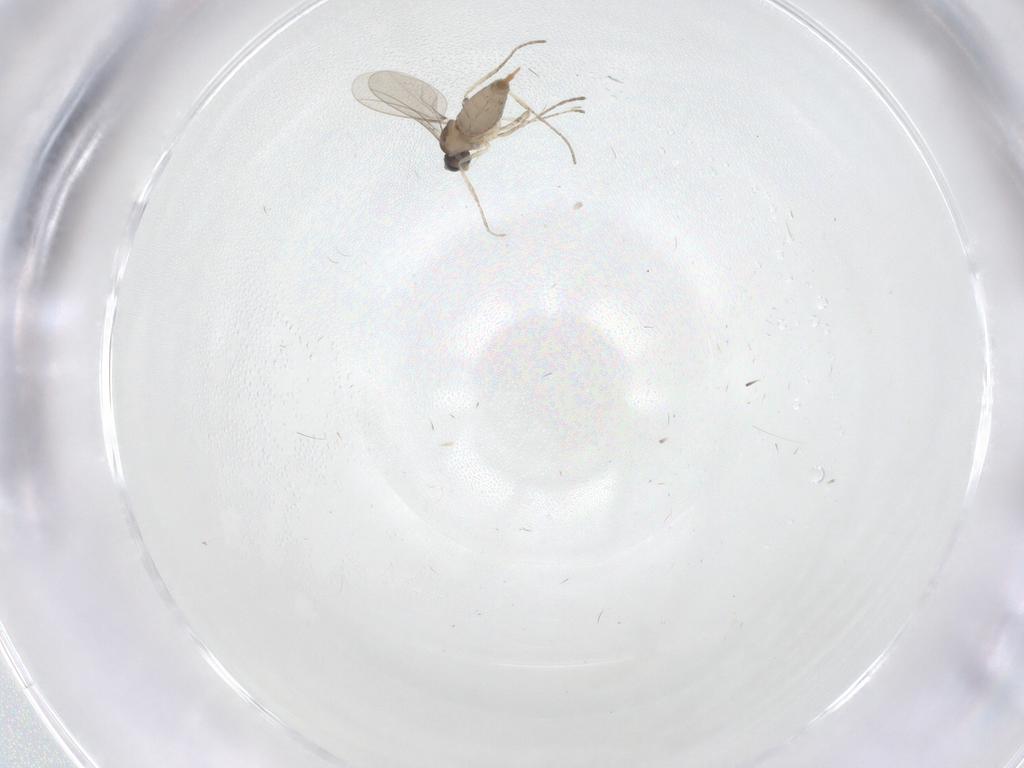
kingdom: Animalia
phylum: Arthropoda
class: Insecta
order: Diptera
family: Cecidomyiidae
